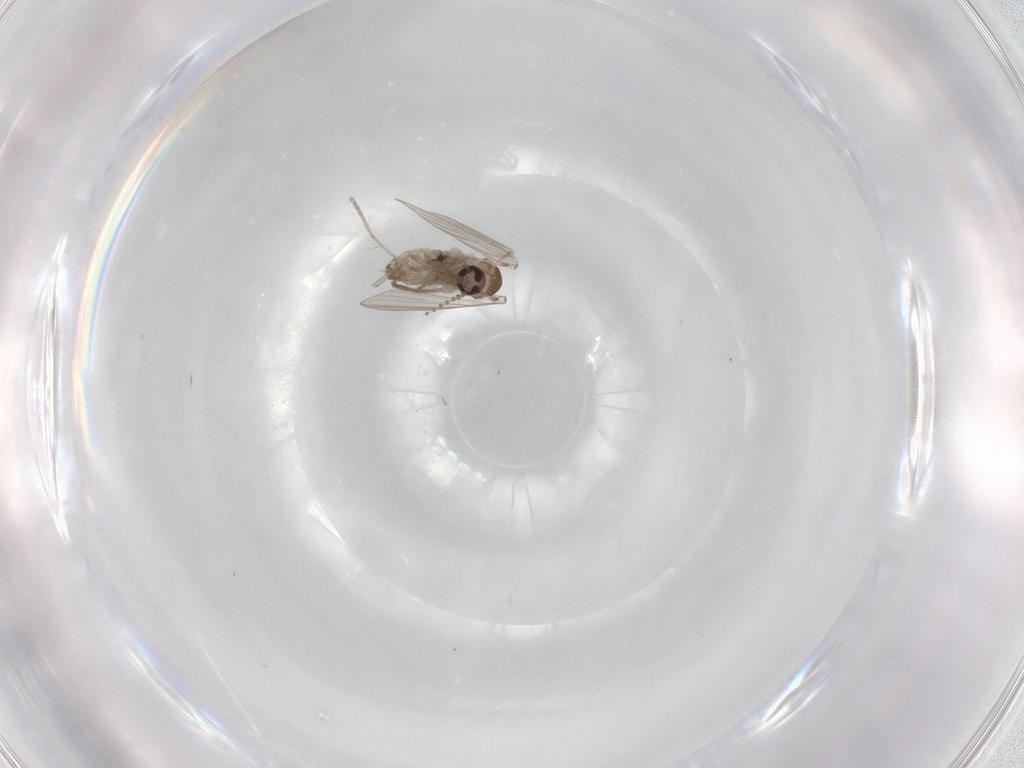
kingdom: Animalia
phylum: Arthropoda
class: Insecta
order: Diptera
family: Psychodidae
